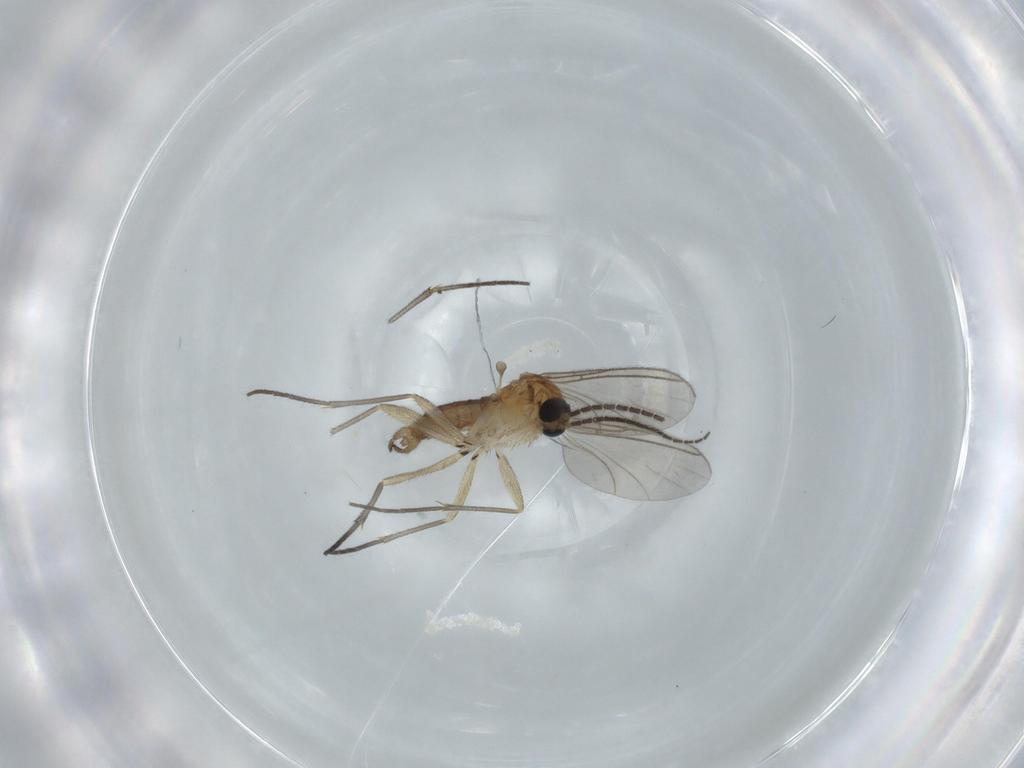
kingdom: Animalia
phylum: Arthropoda
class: Insecta
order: Diptera
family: Sciaridae
